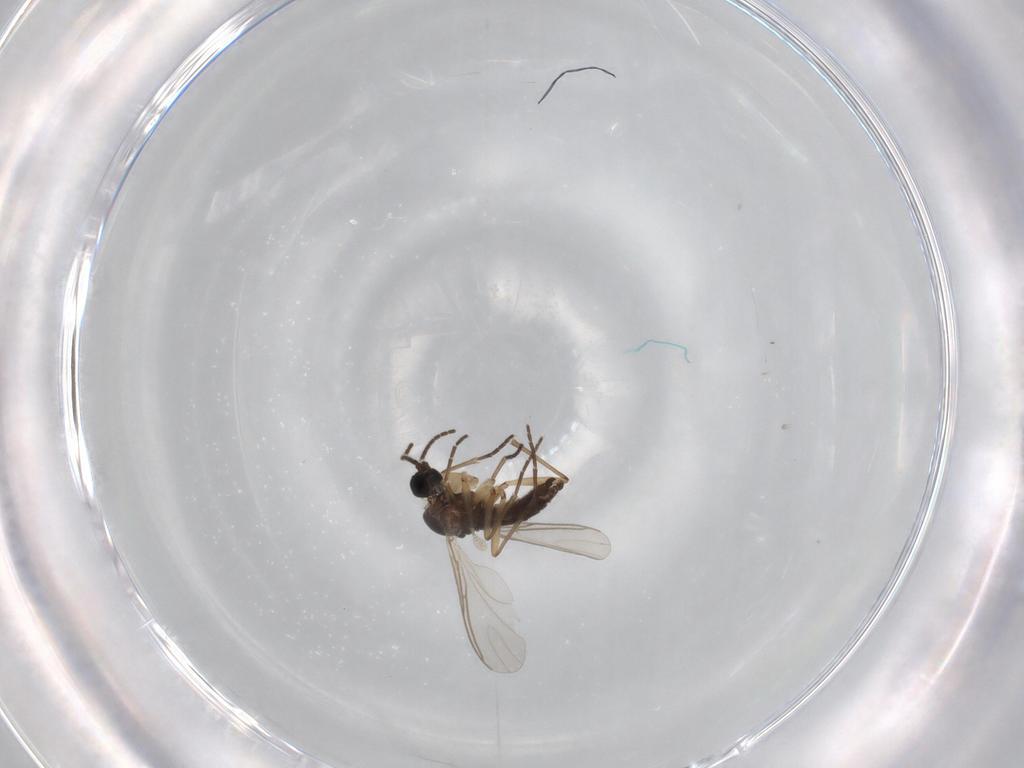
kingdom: Animalia
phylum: Arthropoda
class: Insecta
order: Diptera
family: Sciaridae
